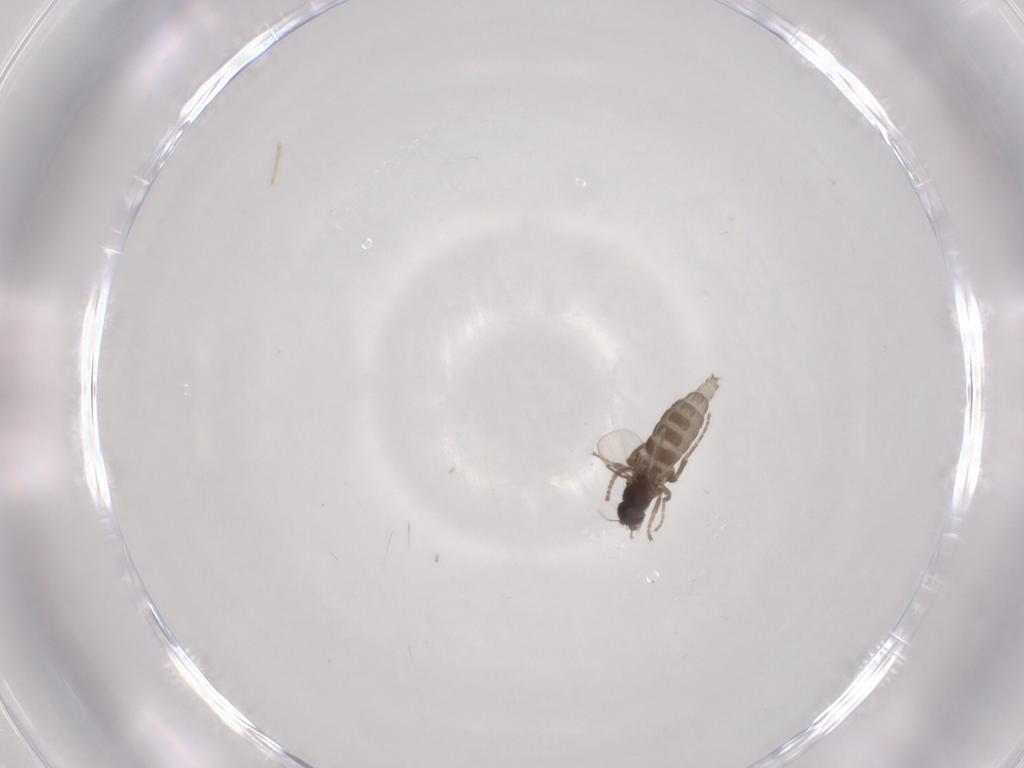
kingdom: Animalia
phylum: Arthropoda
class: Insecta
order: Diptera
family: Phoridae
